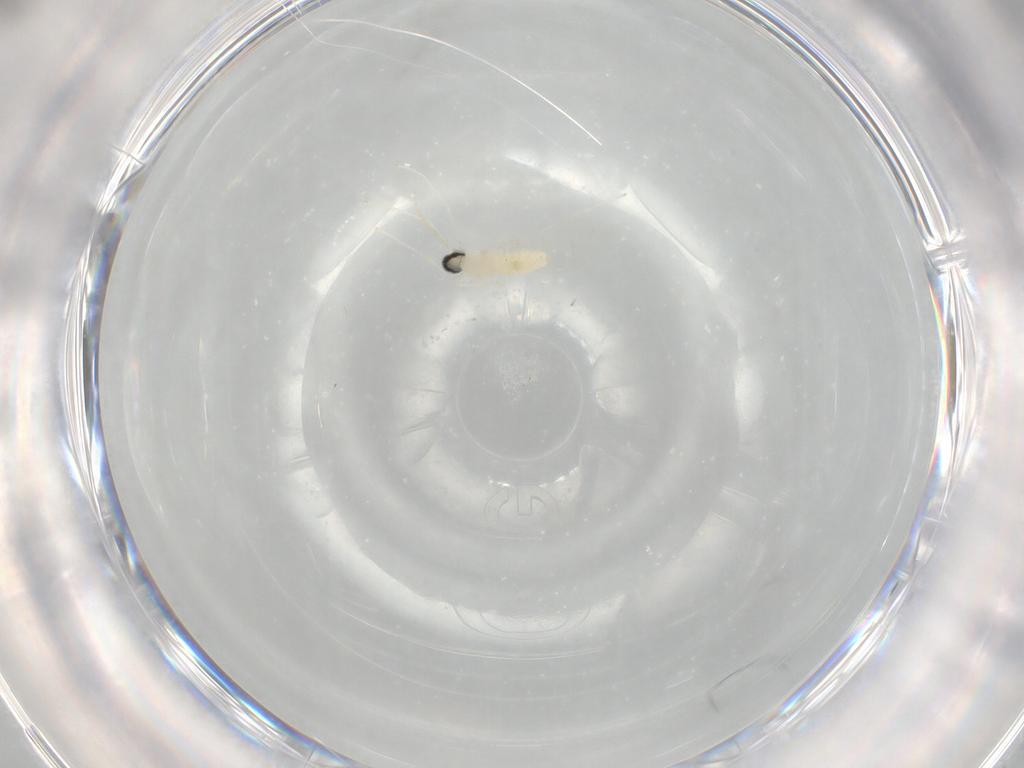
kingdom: Animalia
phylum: Arthropoda
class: Insecta
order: Diptera
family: Cecidomyiidae
